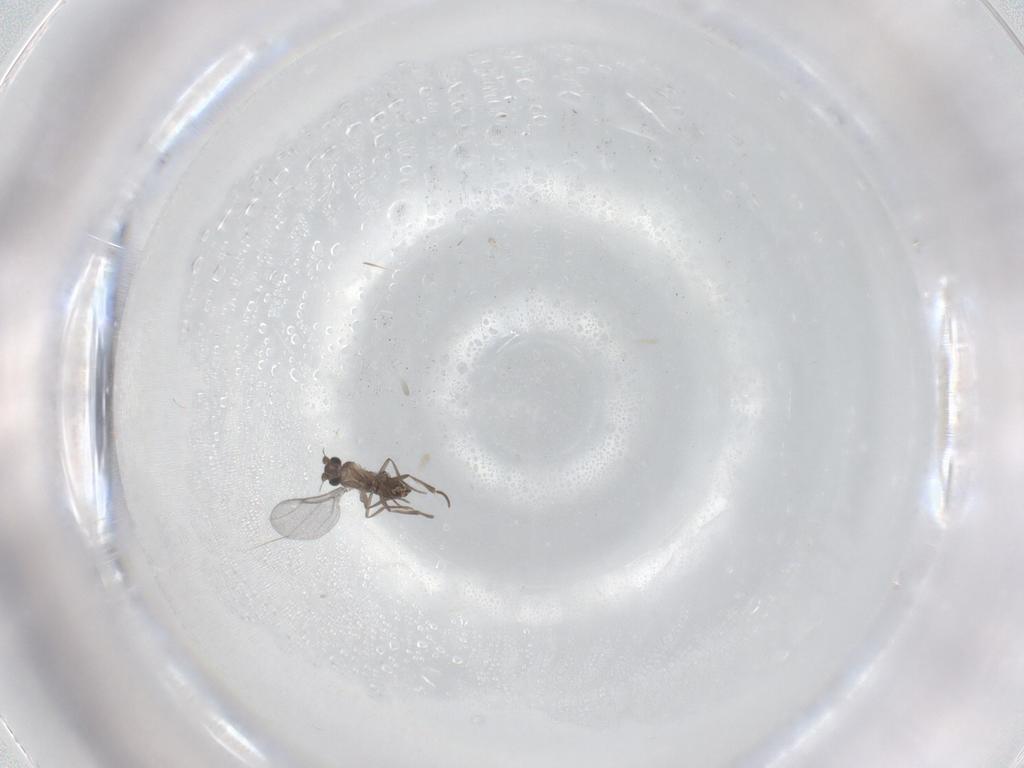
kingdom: Animalia
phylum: Arthropoda
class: Insecta
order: Diptera
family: Phoridae
